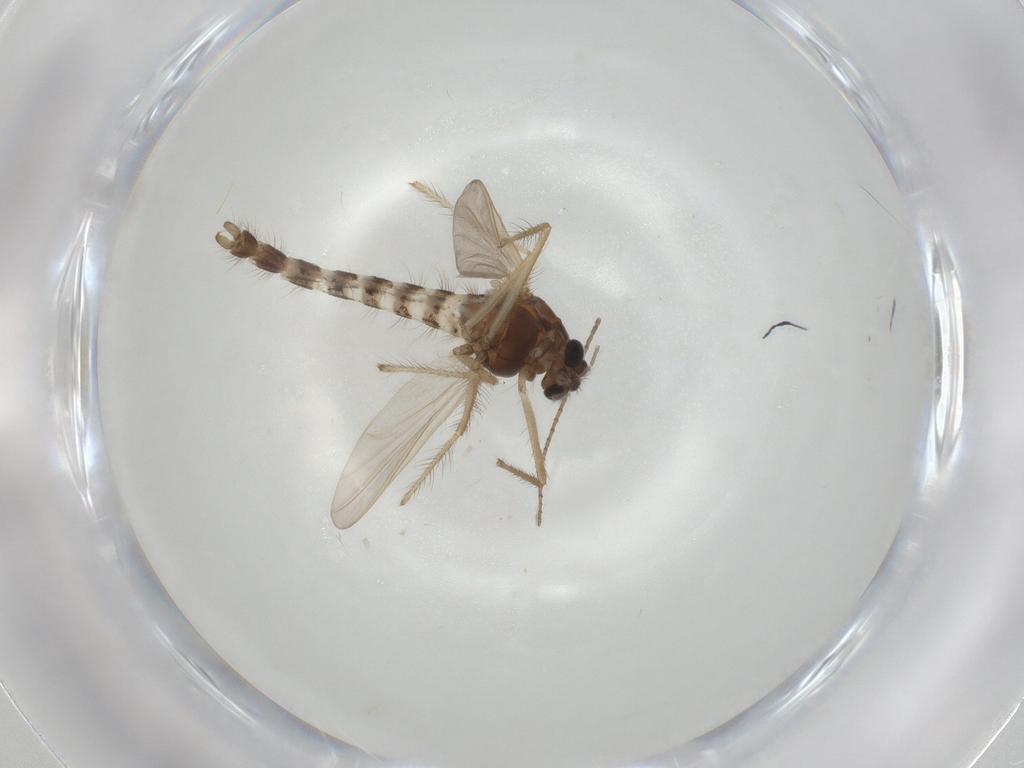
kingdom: Animalia
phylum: Arthropoda
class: Insecta
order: Diptera
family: Chironomidae
